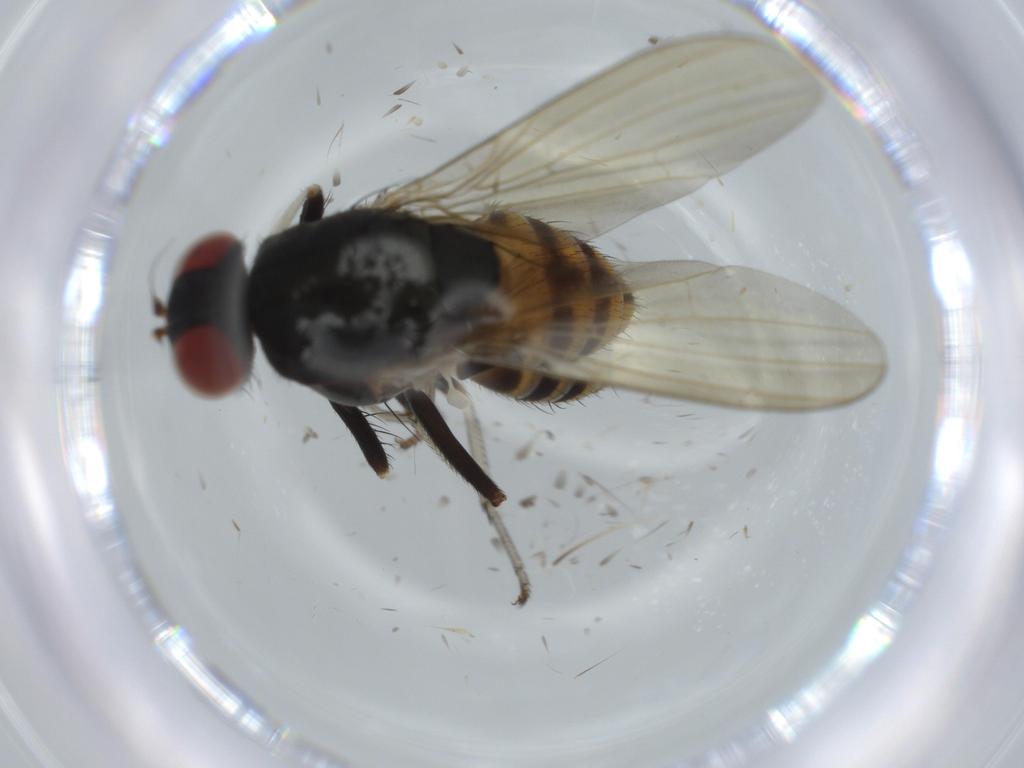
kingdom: Animalia
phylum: Arthropoda
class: Insecta
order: Diptera
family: Lauxaniidae
